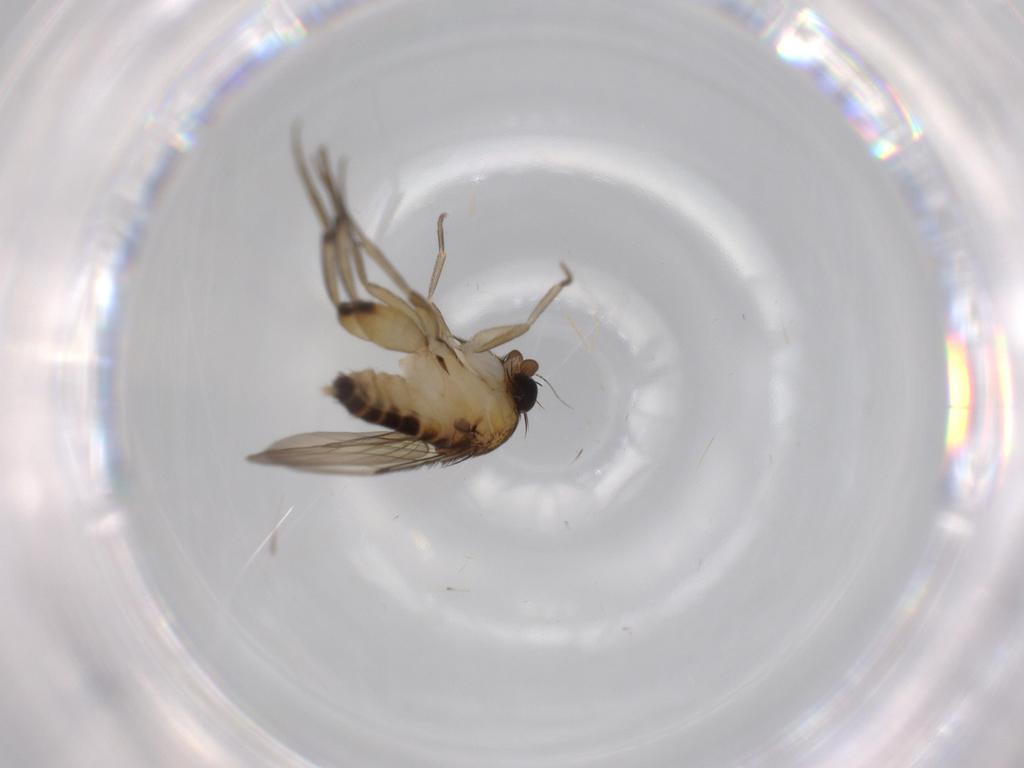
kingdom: Animalia
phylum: Arthropoda
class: Insecta
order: Diptera
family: Phoridae
